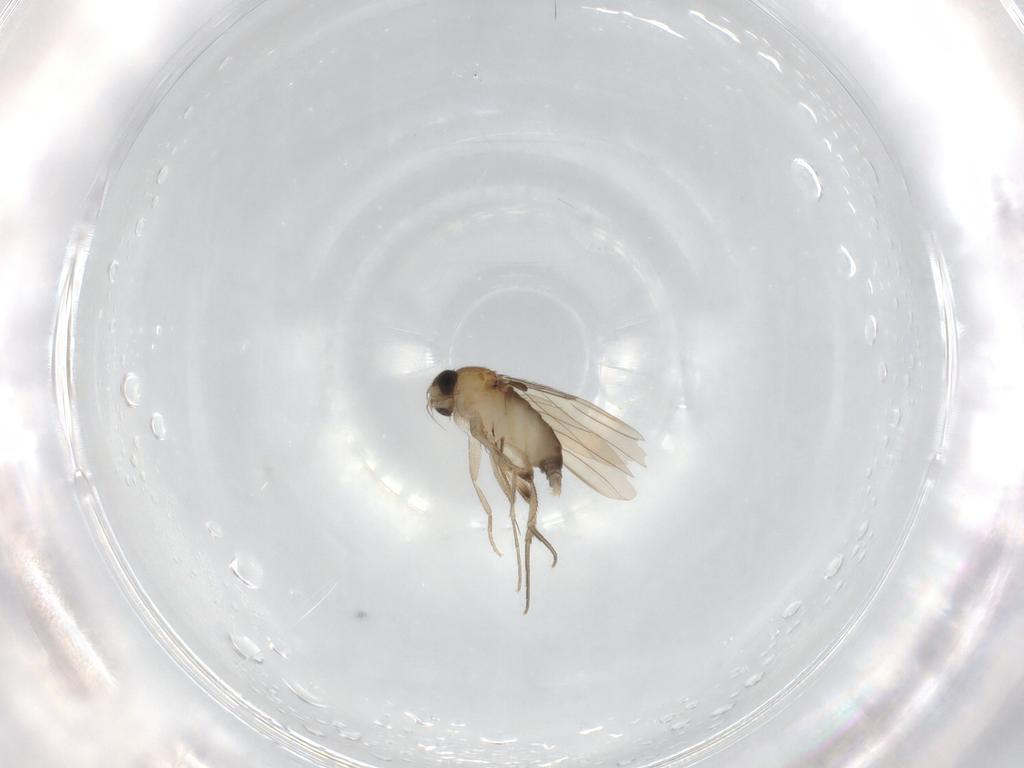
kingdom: Animalia
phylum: Arthropoda
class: Insecta
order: Diptera
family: Phoridae
